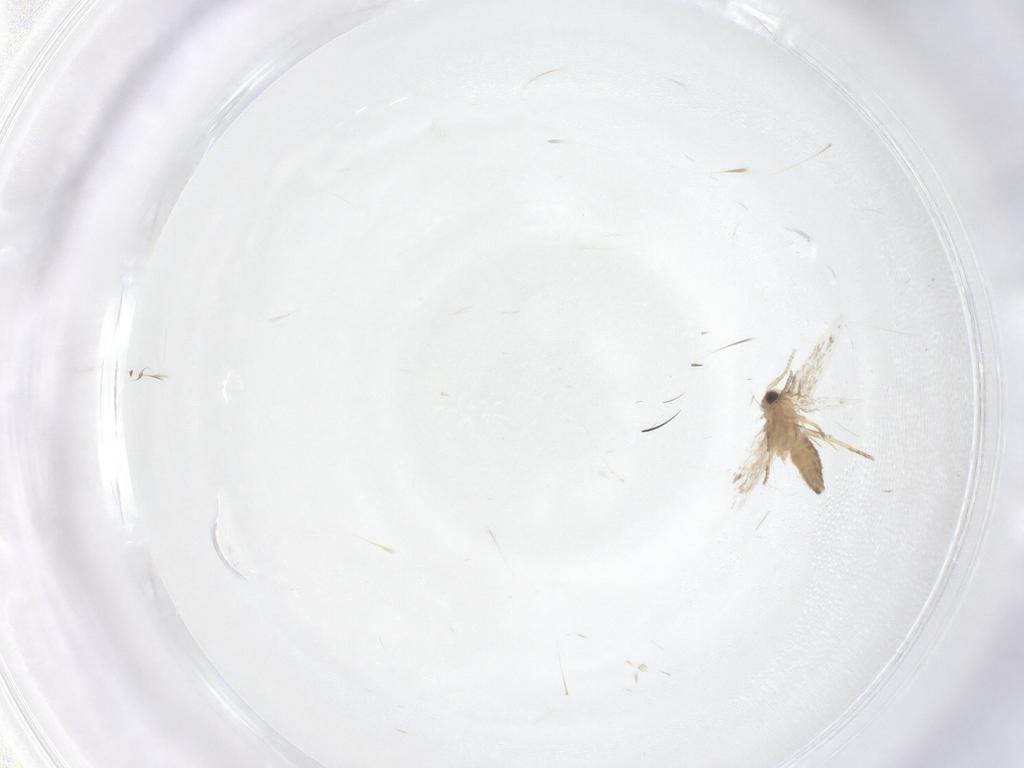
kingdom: Animalia
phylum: Arthropoda
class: Insecta
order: Lepidoptera
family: Nepticulidae
